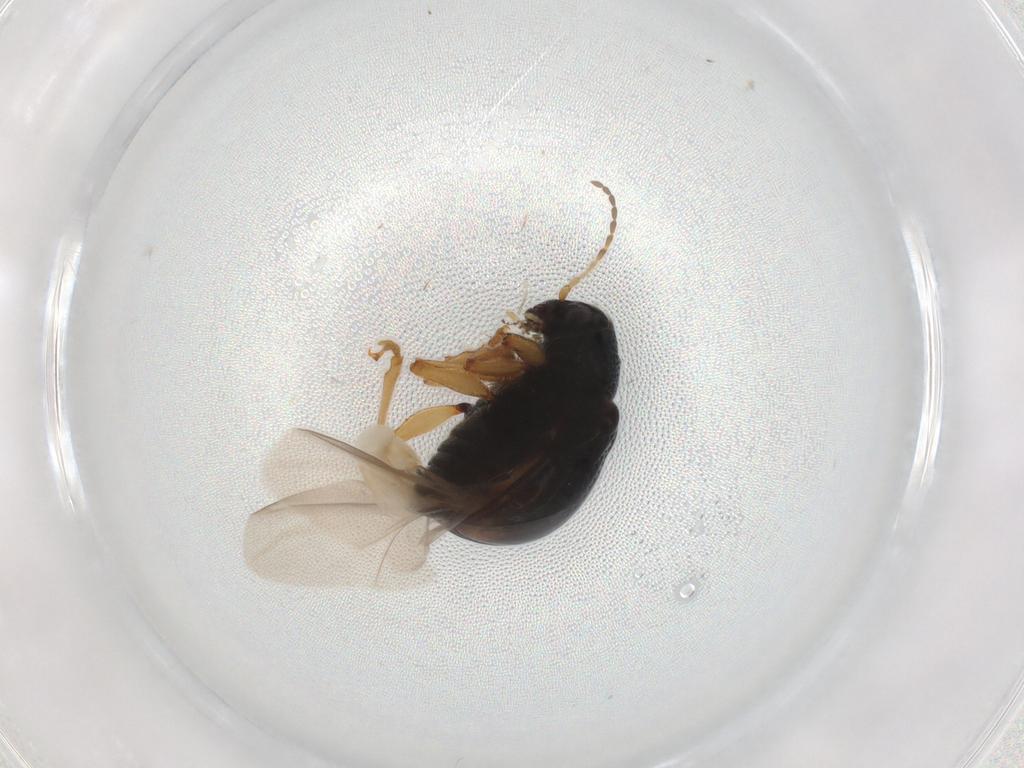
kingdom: Animalia
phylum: Arthropoda
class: Insecta
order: Coleoptera
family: Chrysomelidae
